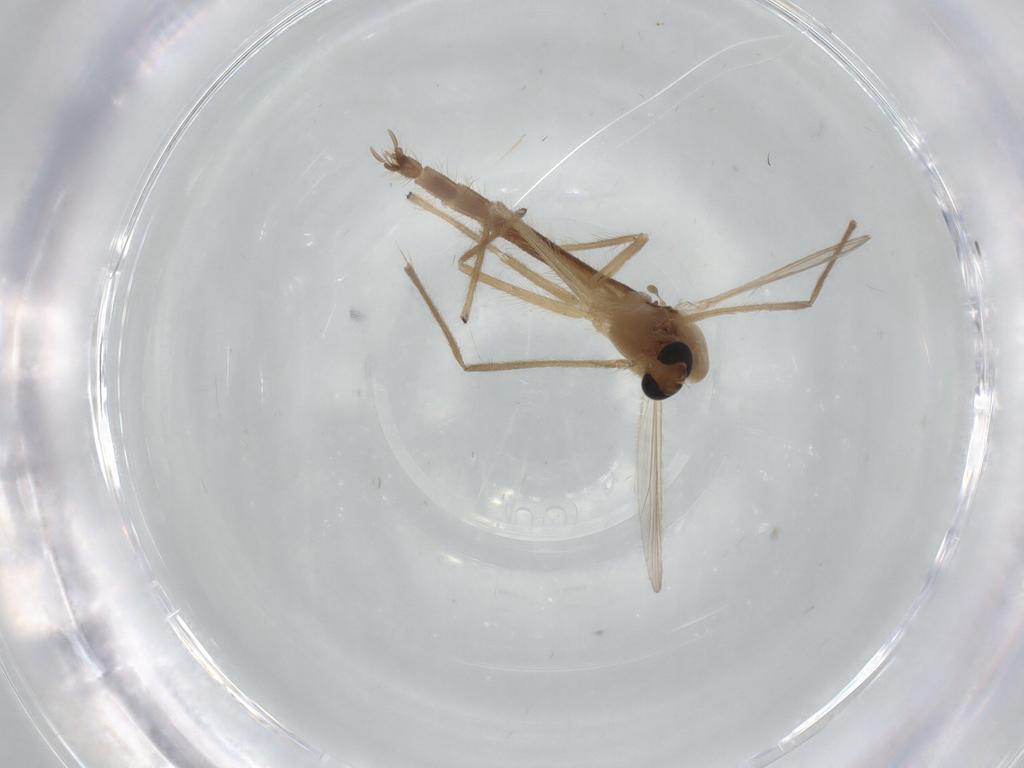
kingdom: Animalia
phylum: Arthropoda
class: Insecta
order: Diptera
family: Chironomidae
